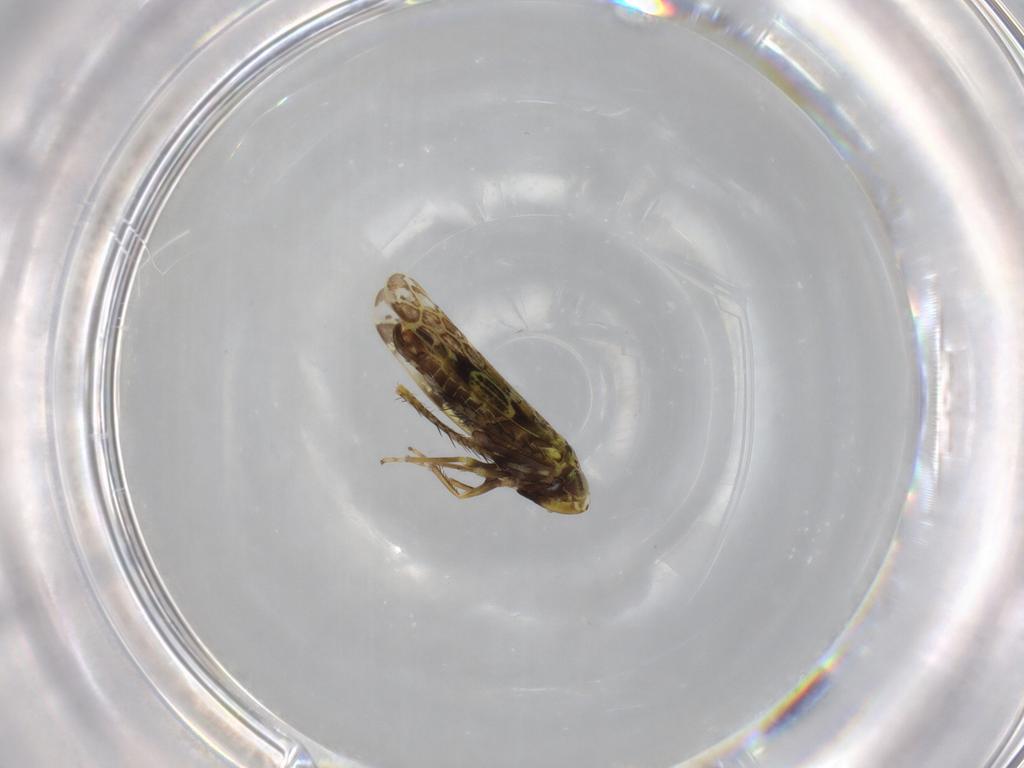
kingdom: Animalia
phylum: Arthropoda
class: Insecta
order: Hemiptera
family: Cicadellidae
